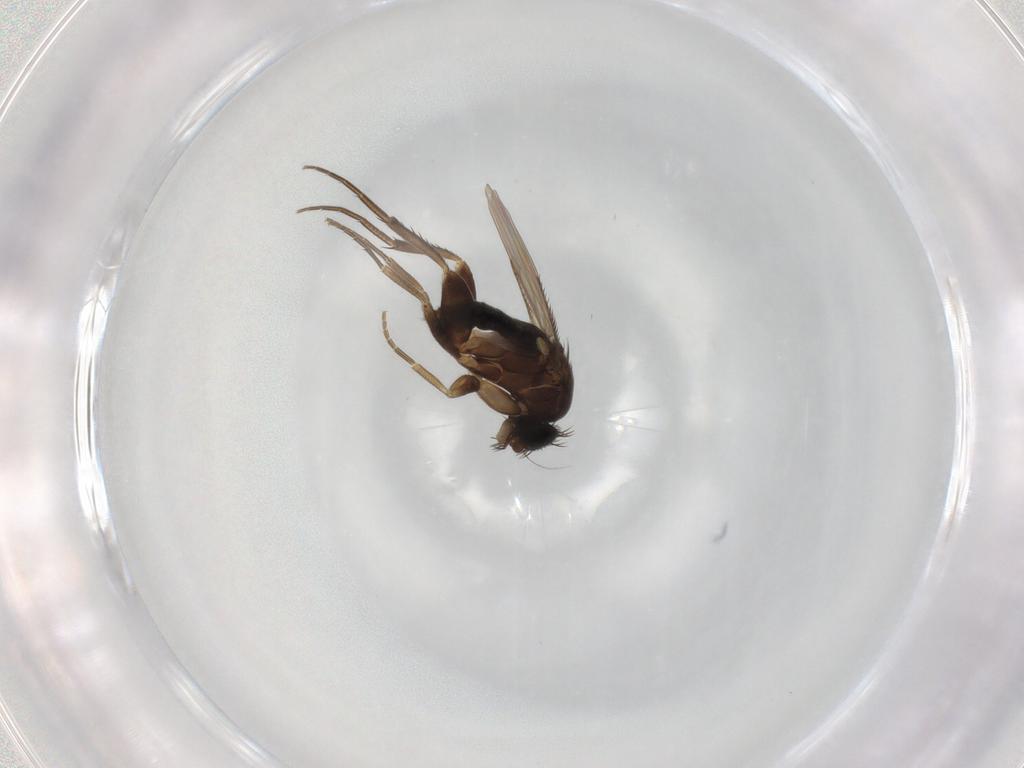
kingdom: Animalia
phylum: Arthropoda
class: Insecta
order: Diptera
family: Phoridae
